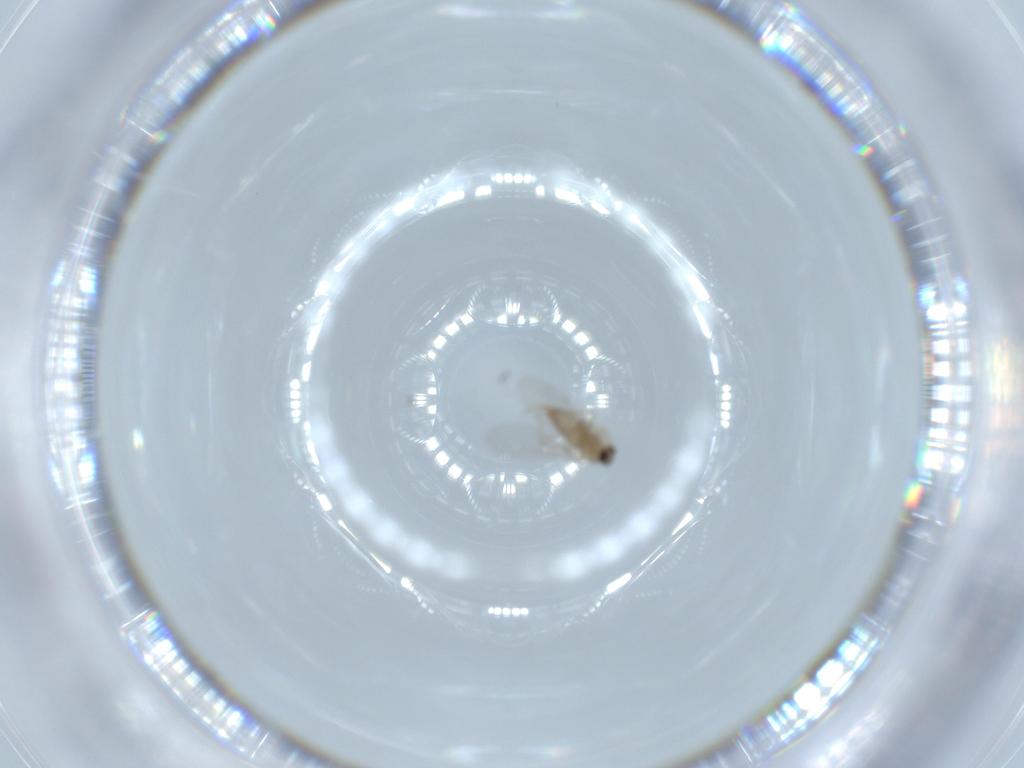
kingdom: Animalia
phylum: Arthropoda
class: Insecta
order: Diptera
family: Cecidomyiidae
